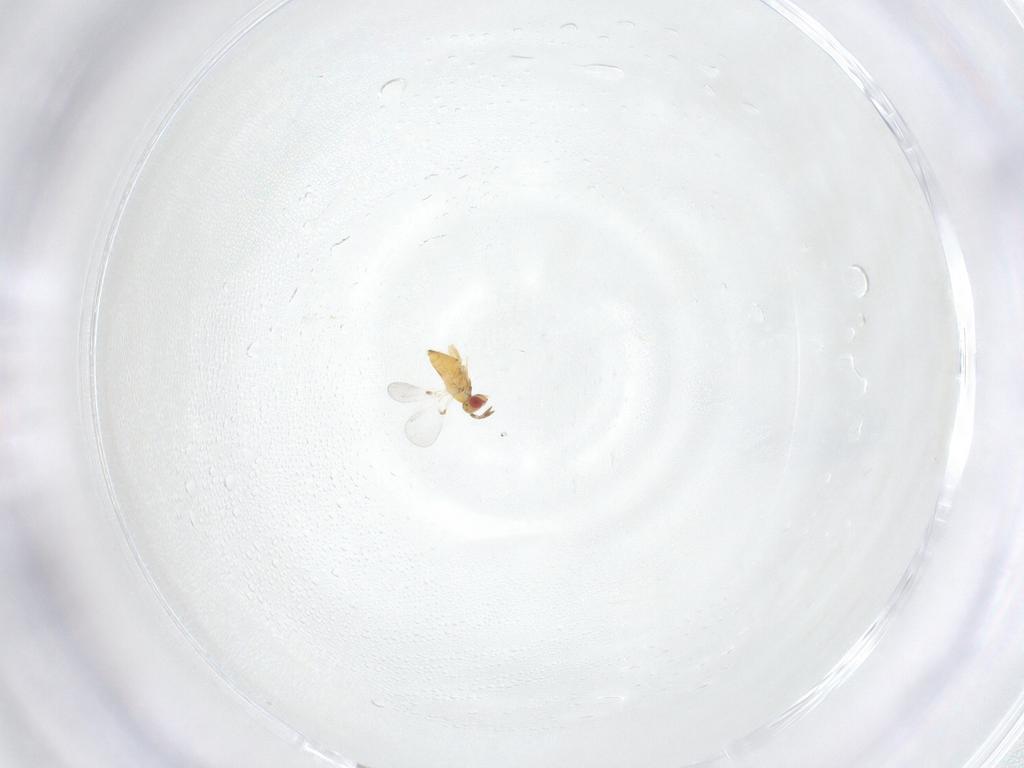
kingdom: Animalia
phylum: Arthropoda
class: Insecta
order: Hymenoptera
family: Trichogrammatidae
